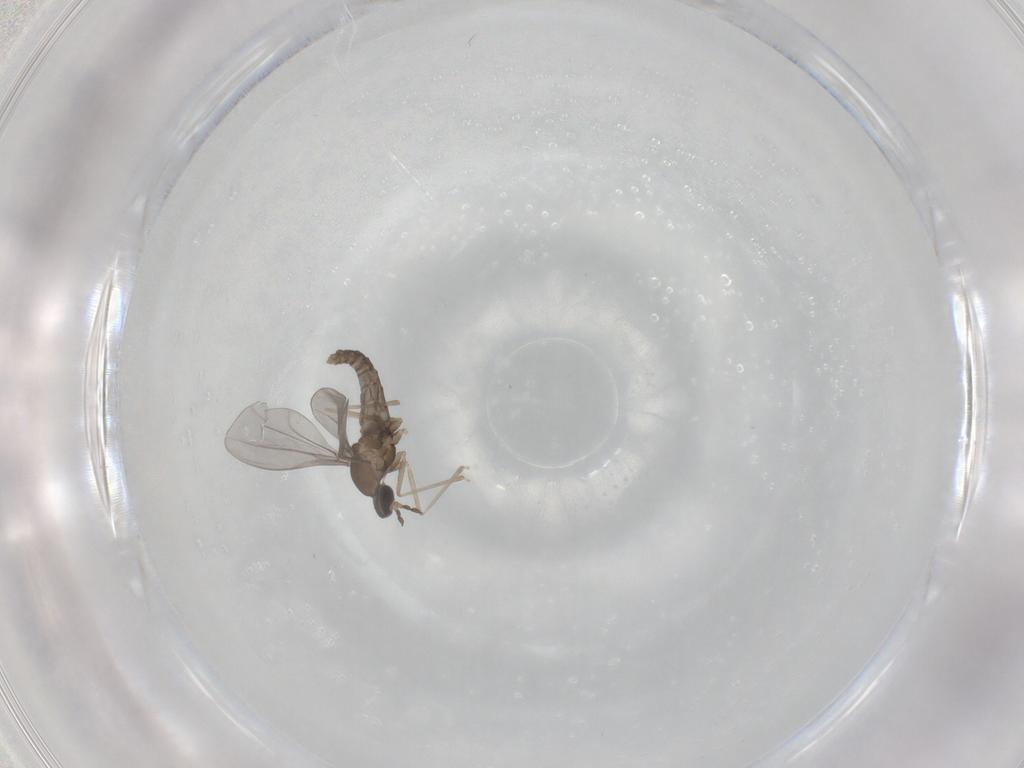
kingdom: Animalia
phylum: Arthropoda
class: Insecta
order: Diptera
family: Cecidomyiidae
